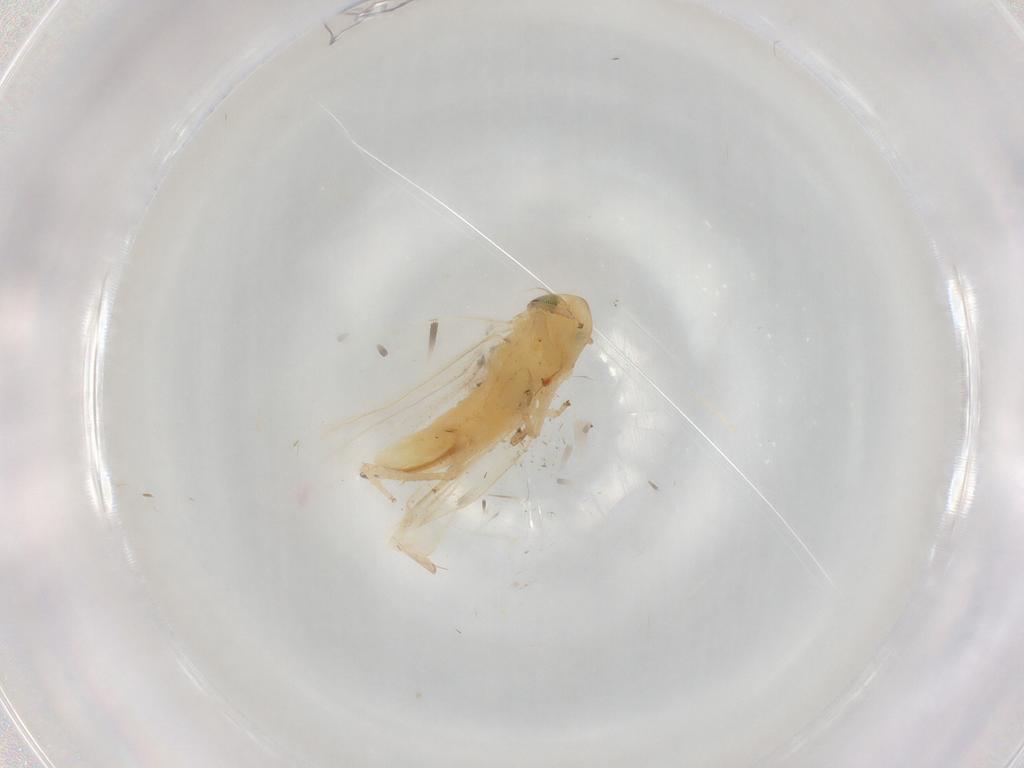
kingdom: Animalia
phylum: Arthropoda
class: Insecta
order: Hemiptera
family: Cicadellidae
